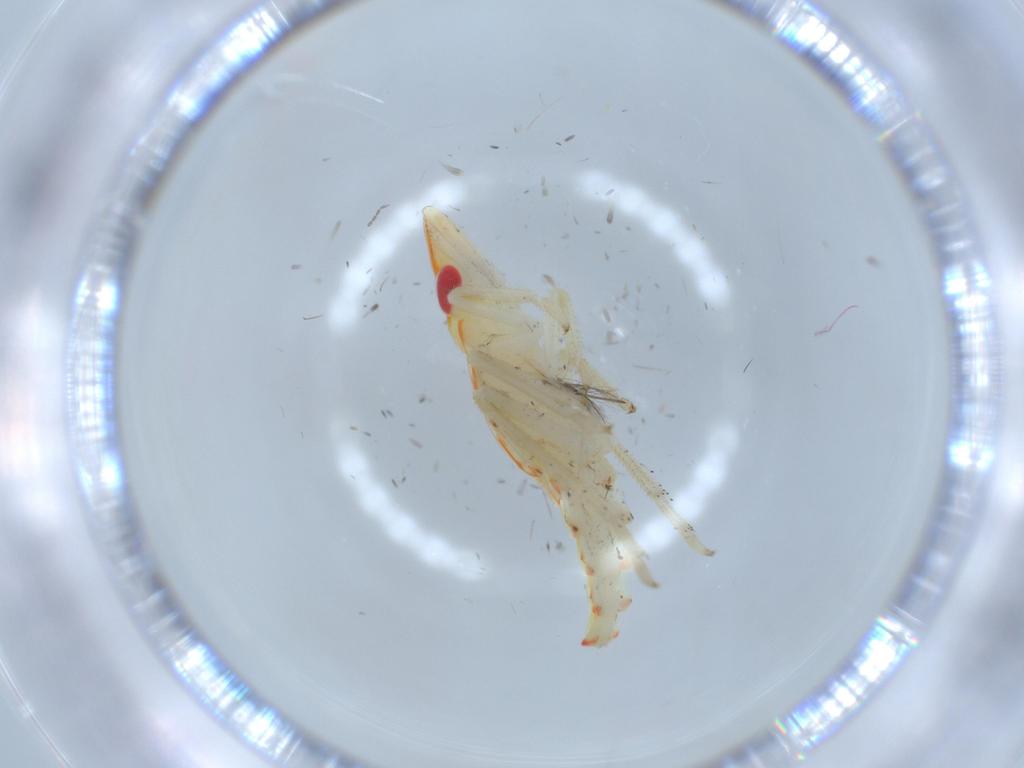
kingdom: Animalia
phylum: Arthropoda
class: Insecta
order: Hemiptera
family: Tropiduchidae
